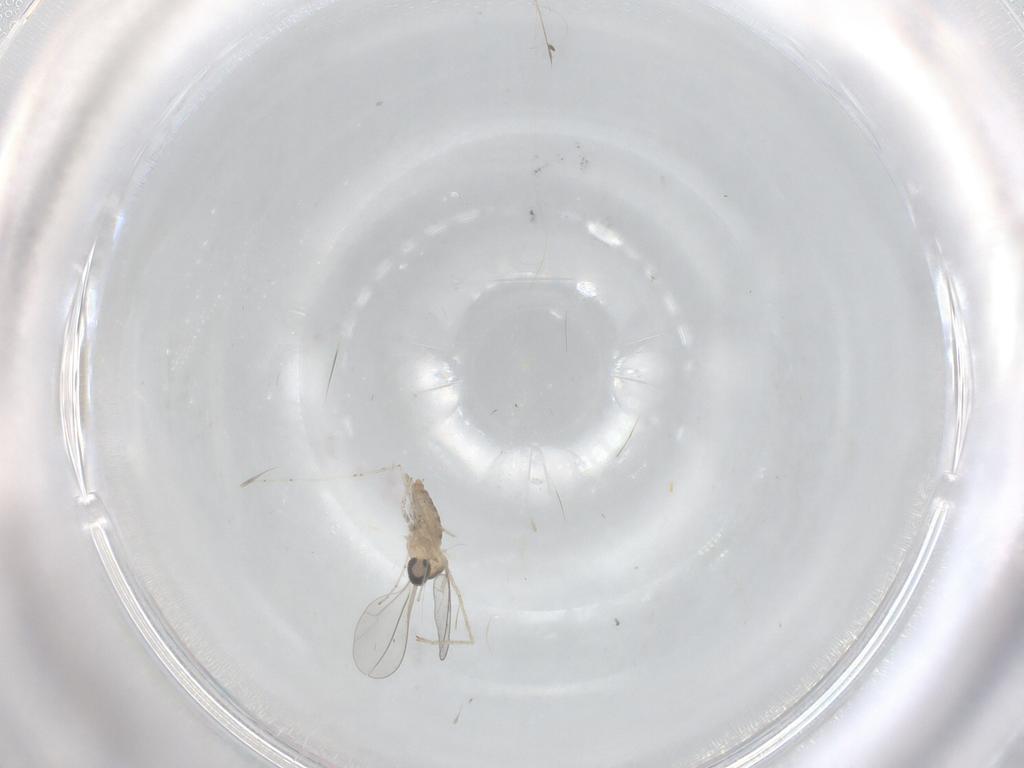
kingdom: Animalia
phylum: Arthropoda
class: Insecta
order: Diptera
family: Cecidomyiidae
